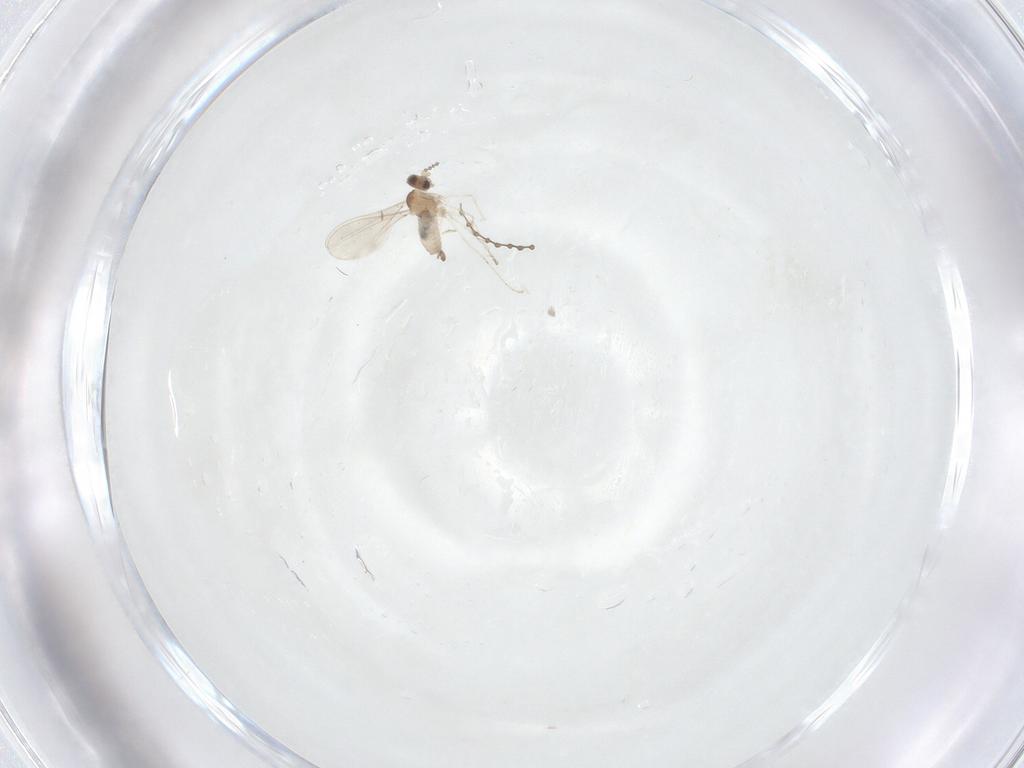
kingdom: Animalia
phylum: Arthropoda
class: Insecta
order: Diptera
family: Cecidomyiidae
